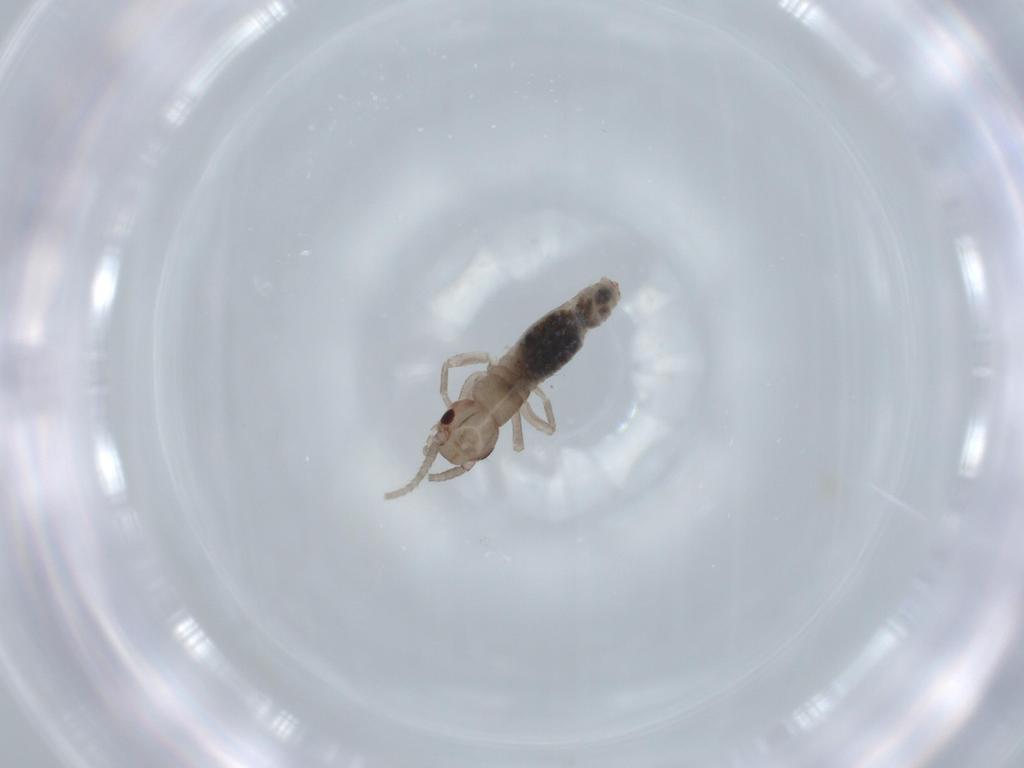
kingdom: Animalia
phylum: Arthropoda
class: Insecta
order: Orthoptera
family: Mogoplistidae
